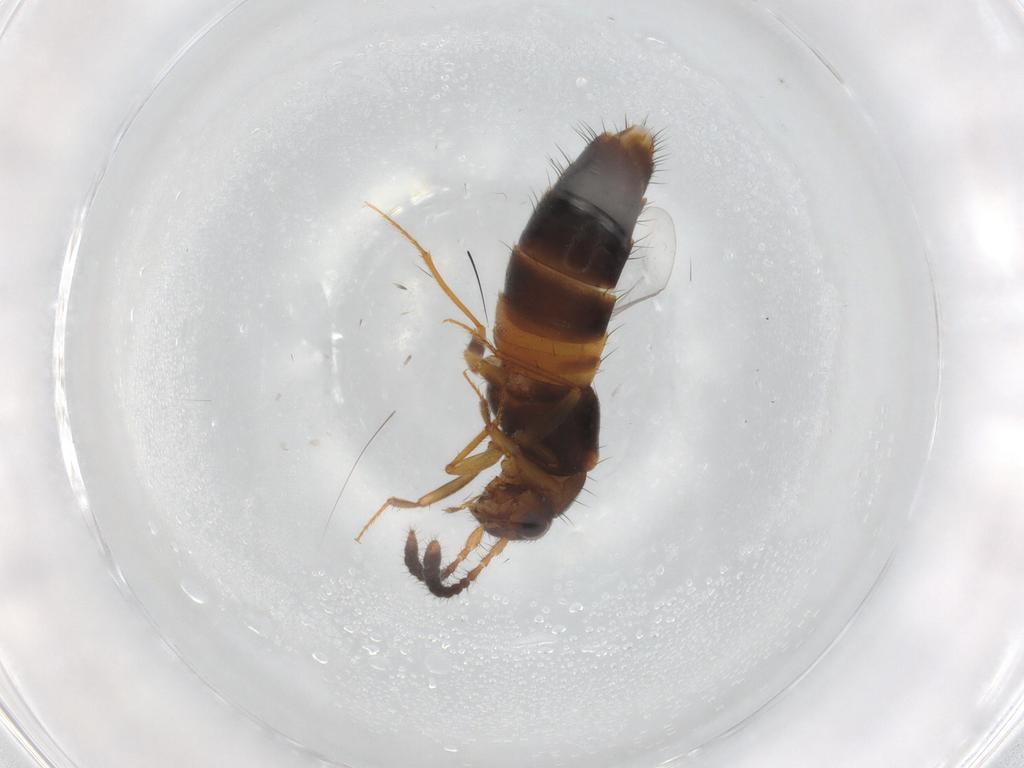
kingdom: Animalia
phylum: Arthropoda
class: Insecta
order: Coleoptera
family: Staphylinidae
